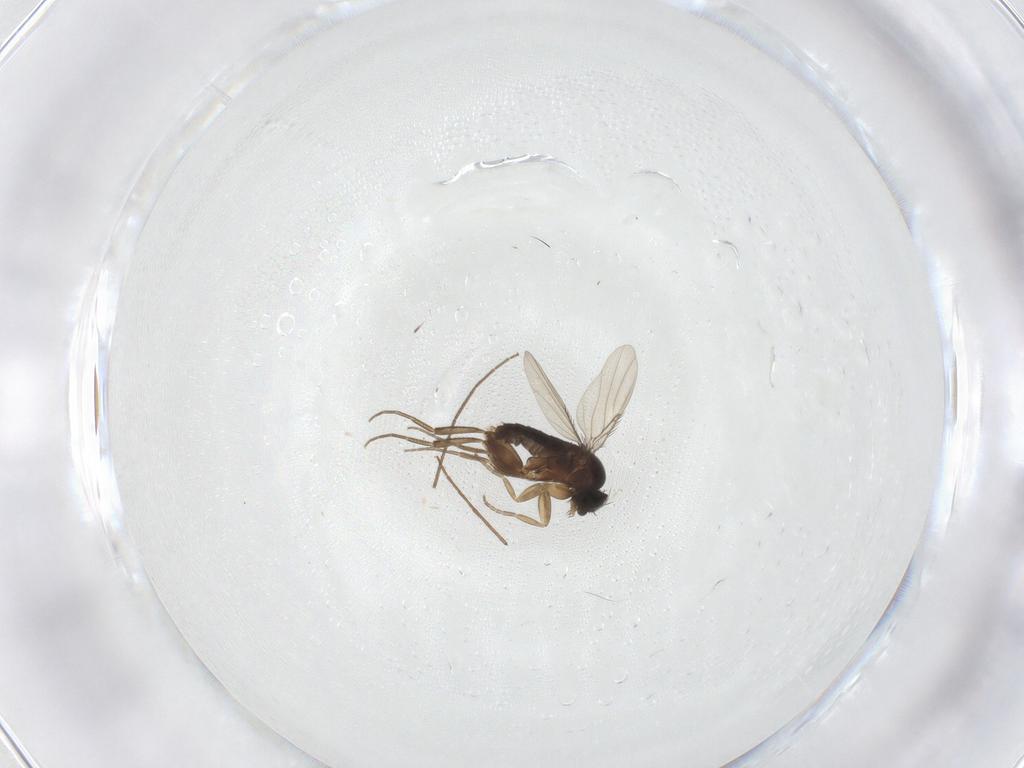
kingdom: Animalia
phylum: Arthropoda
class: Insecta
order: Diptera
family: Phoridae
